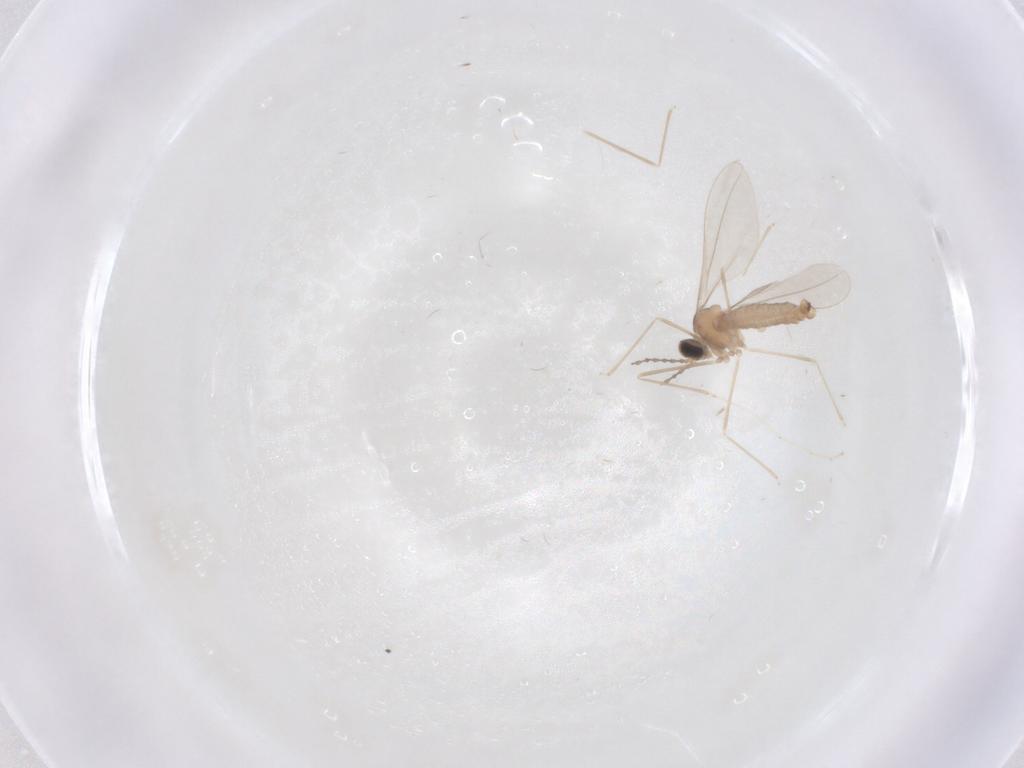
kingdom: Animalia
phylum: Arthropoda
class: Insecta
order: Diptera
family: Cecidomyiidae
